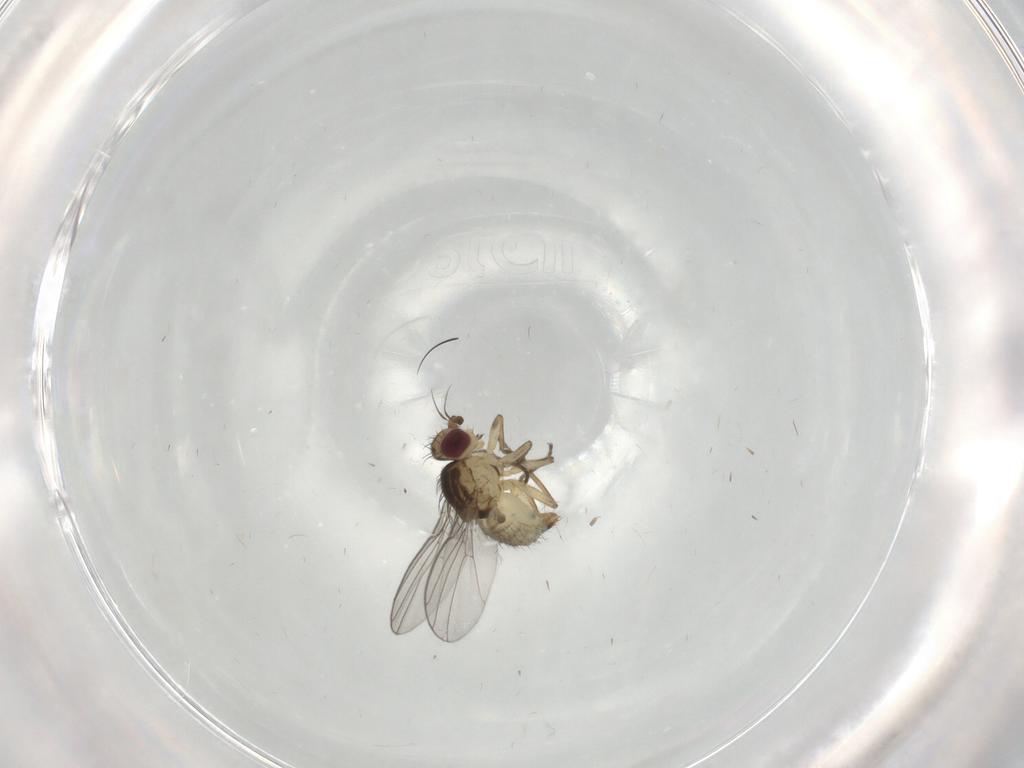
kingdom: Animalia
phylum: Arthropoda
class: Insecta
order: Diptera
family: Agromyzidae
